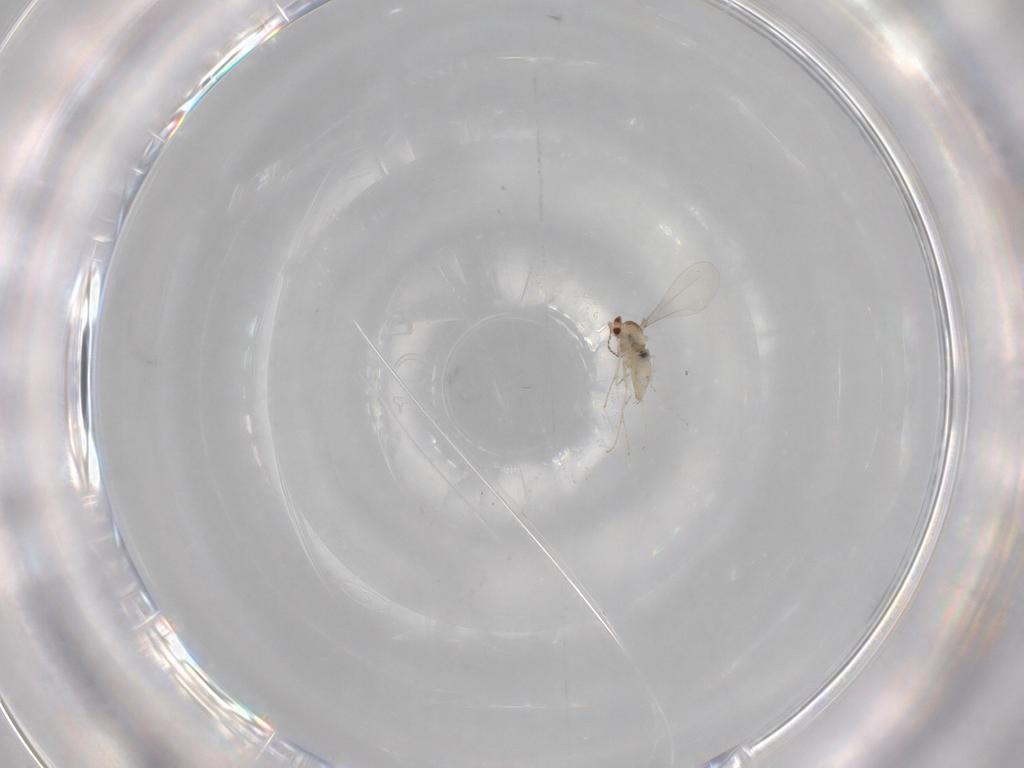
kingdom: Animalia
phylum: Arthropoda
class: Insecta
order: Diptera
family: Cecidomyiidae
